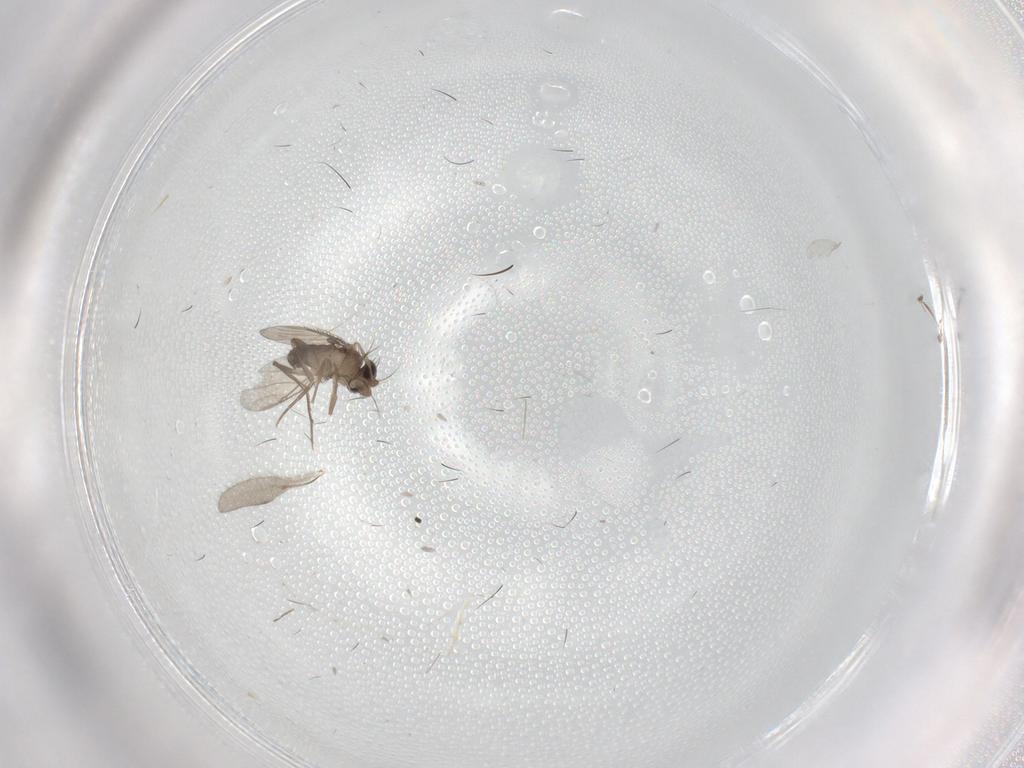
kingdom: Animalia
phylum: Arthropoda
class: Insecta
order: Diptera
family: Phoridae
